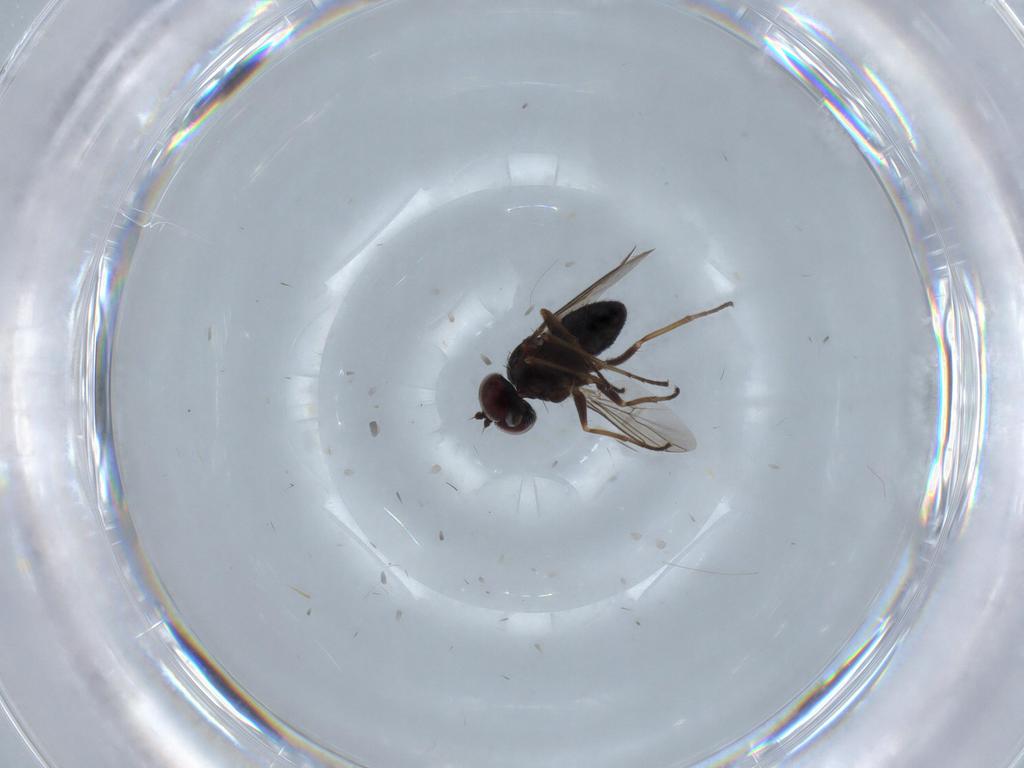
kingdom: Animalia
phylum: Arthropoda
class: Insecta
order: Diptera
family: Dolichopodidae
